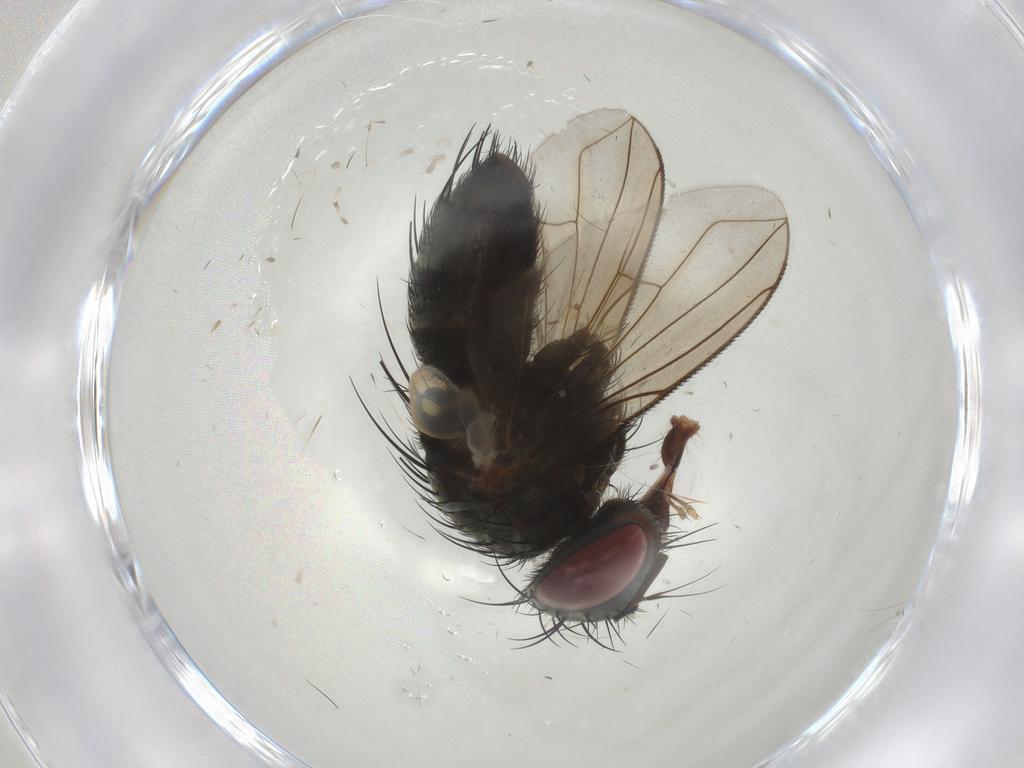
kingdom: Animalia
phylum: Arthropoda
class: Insecta
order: Diptera
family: Tachinidae
